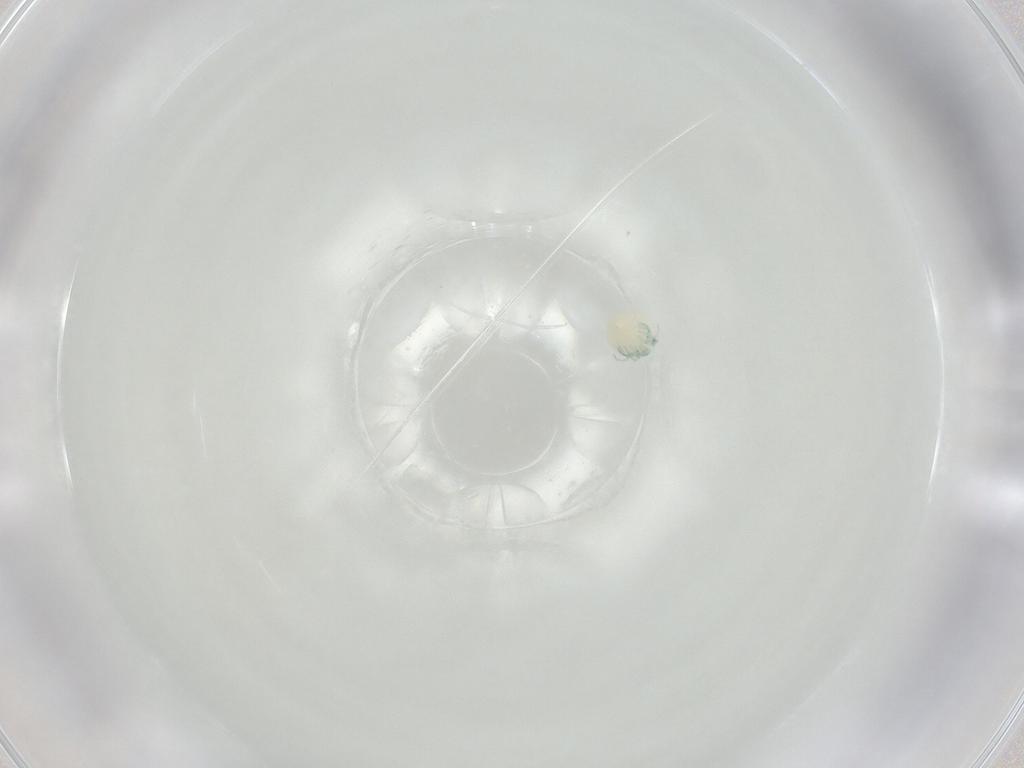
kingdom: Animalia
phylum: Arthropoda
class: Arachnida
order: Trombidiformes
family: Arrenuridae
